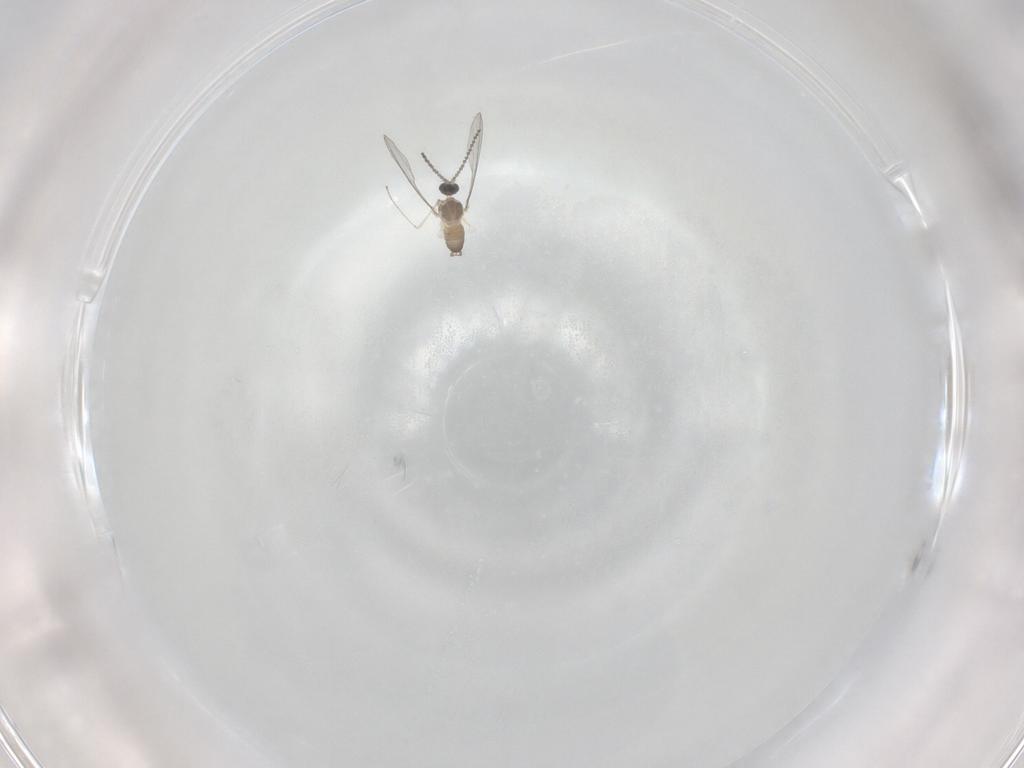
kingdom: Animalia
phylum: Arthropoda
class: Insecta
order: Diptera
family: Cecidomyiidae
